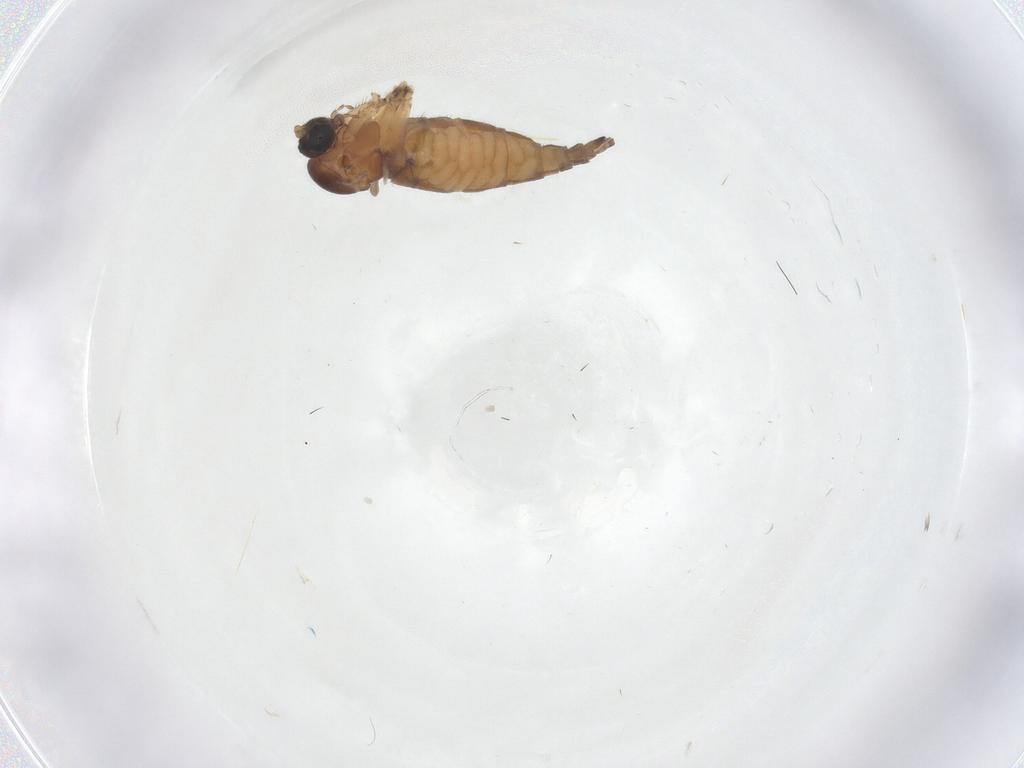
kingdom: Animalia
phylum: Arthropoda
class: Insecta
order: Diptera
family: Sciaridae
